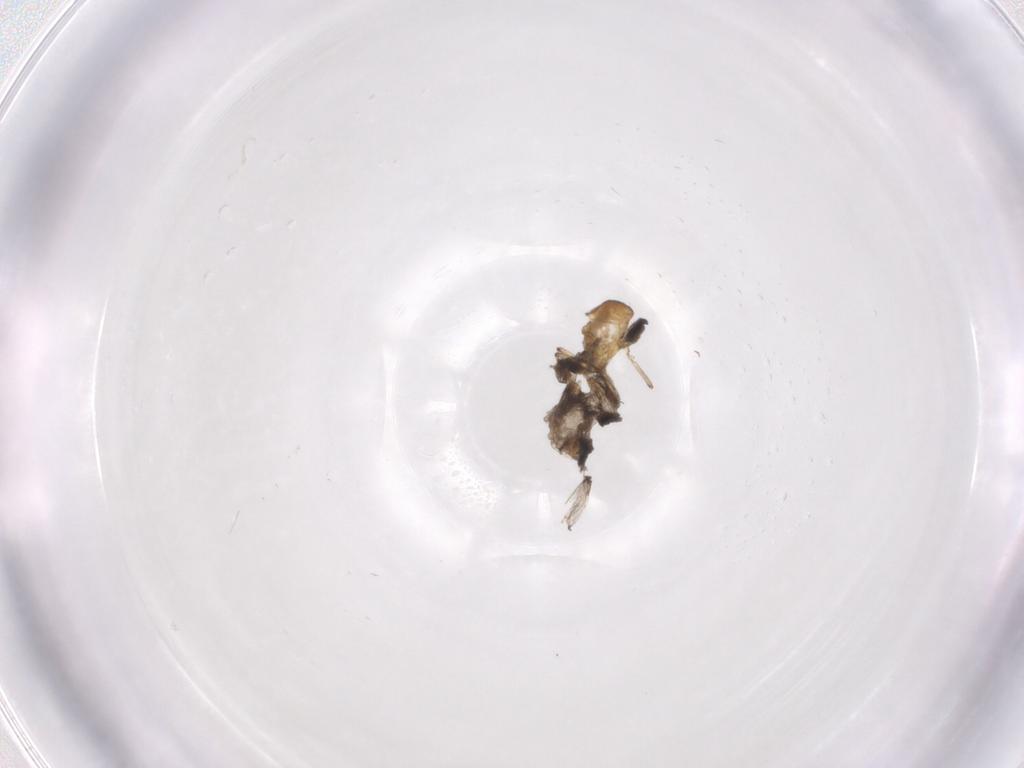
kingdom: Animalia
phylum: Arthropoda
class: Insecta
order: Diptera
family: Ceratopogonidae
